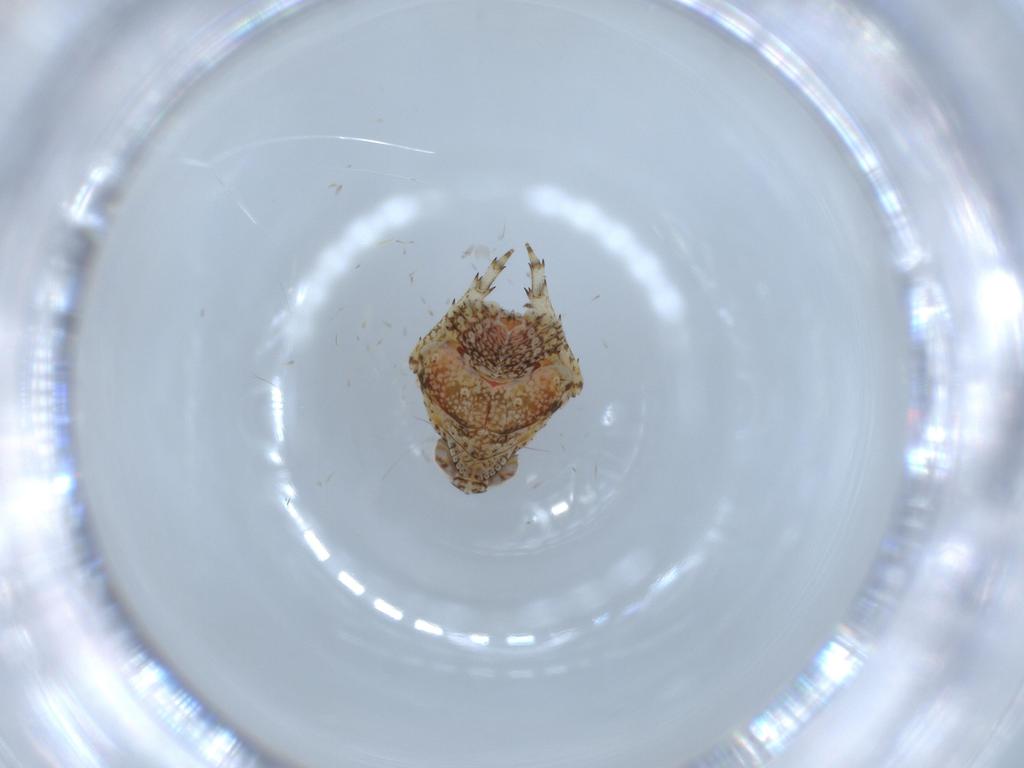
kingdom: Animalia
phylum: Arthropoda
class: Insecta
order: Hemiptera
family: Issidae
